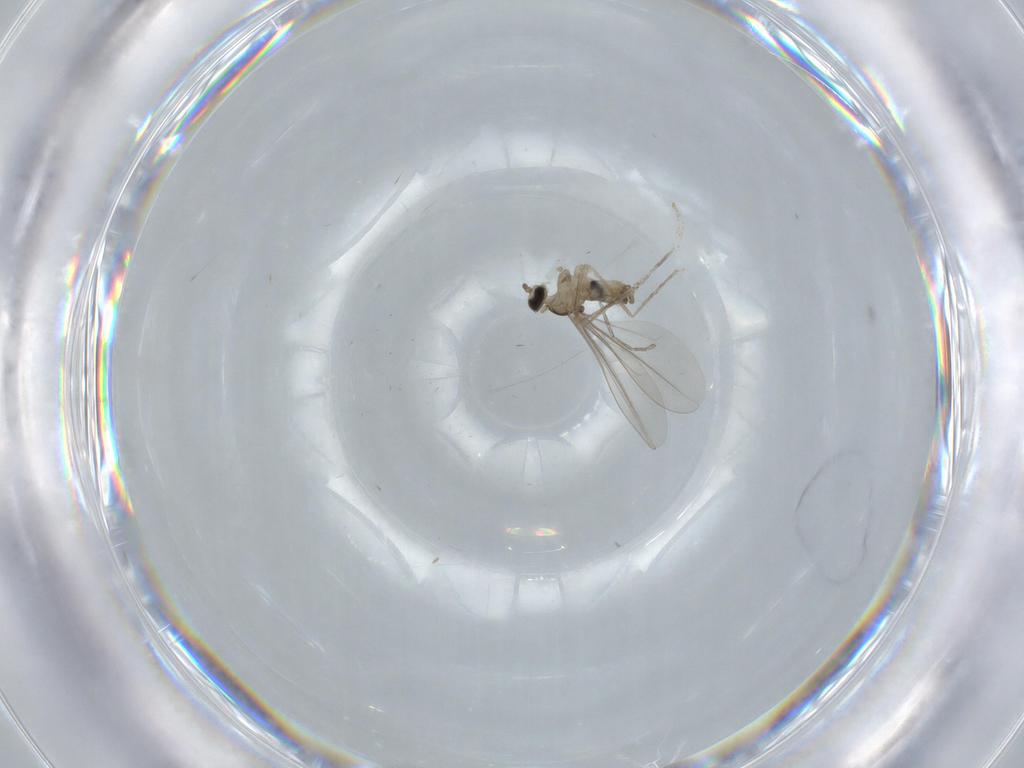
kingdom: Animalia
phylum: Arthropoda
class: Insecta
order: Diptera
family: Cecidomyiidae
